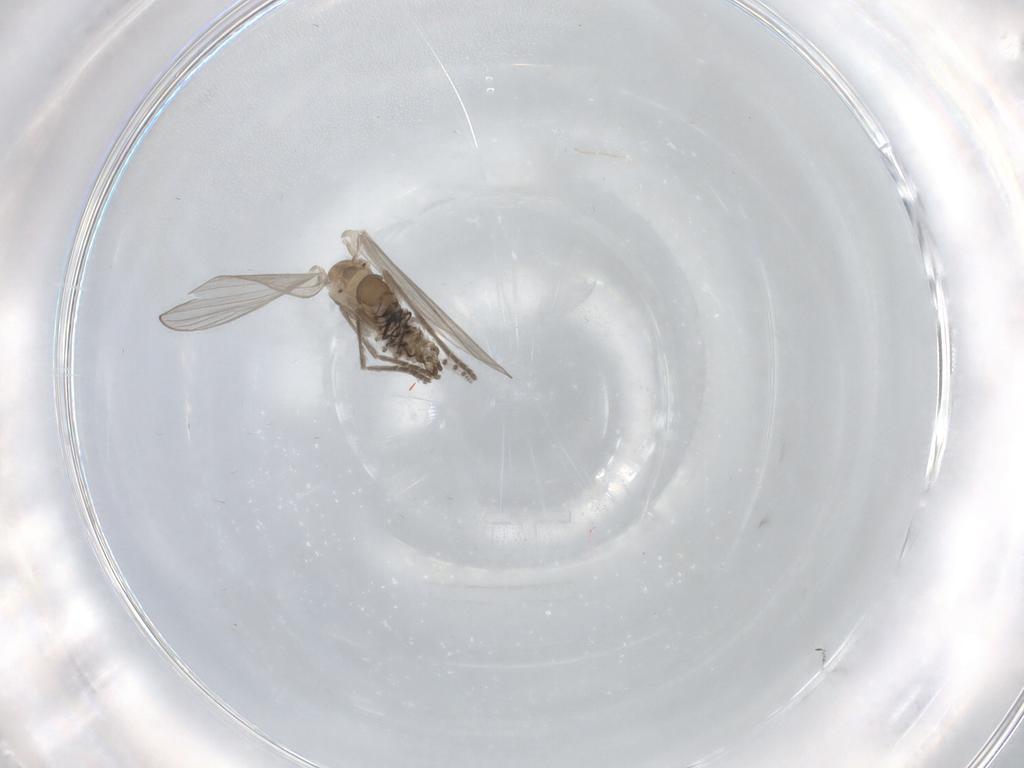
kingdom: Animalia
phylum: Arthropoda
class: Insecta
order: Diptera
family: Psychodidae
